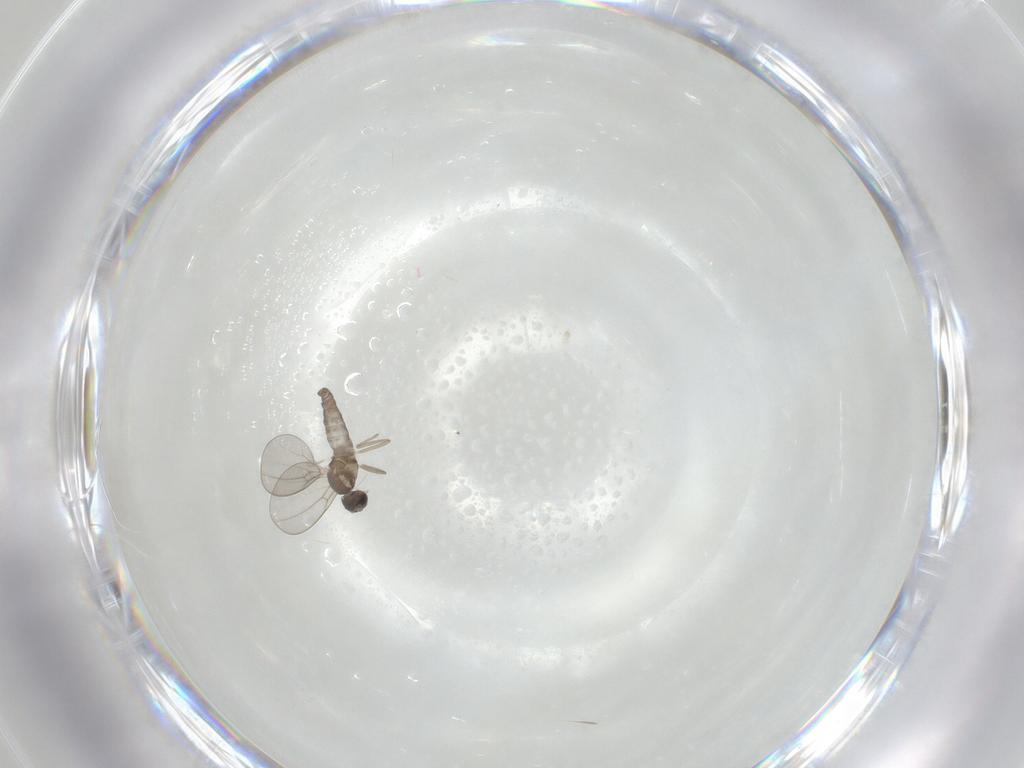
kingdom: Animalia
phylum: Arthropoda
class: Insecta
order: Diptera
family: Cecidomyiidae
